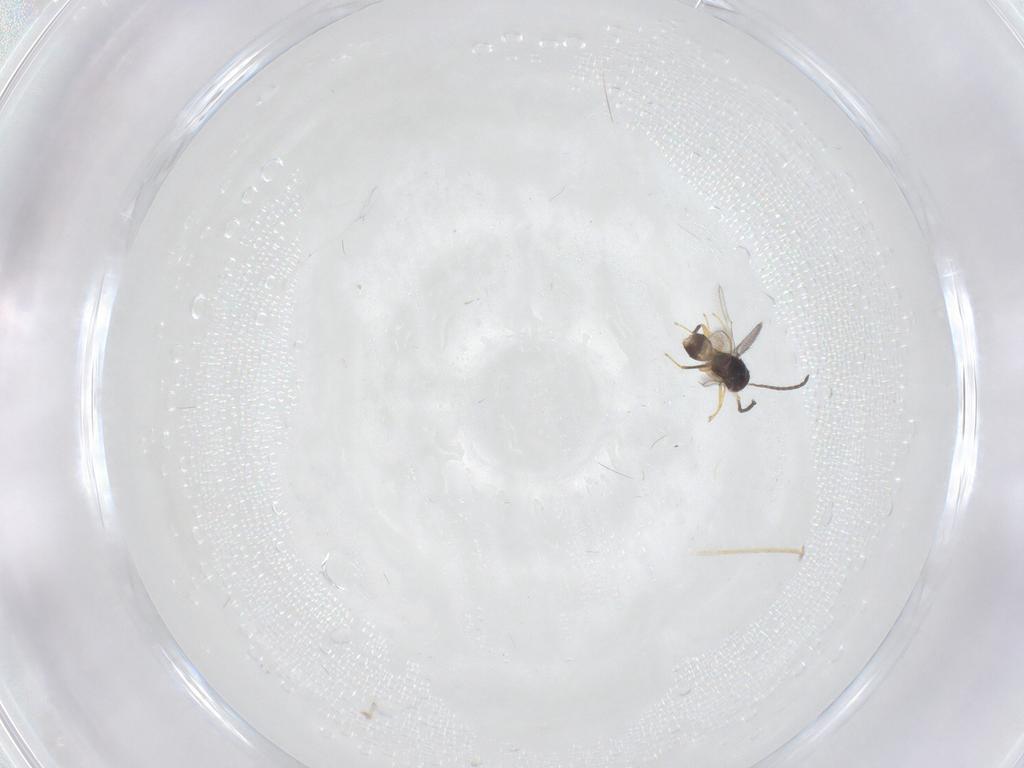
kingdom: Animalia
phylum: Arthropoda
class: Insecta
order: Hymenoptera
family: Mymaridae
